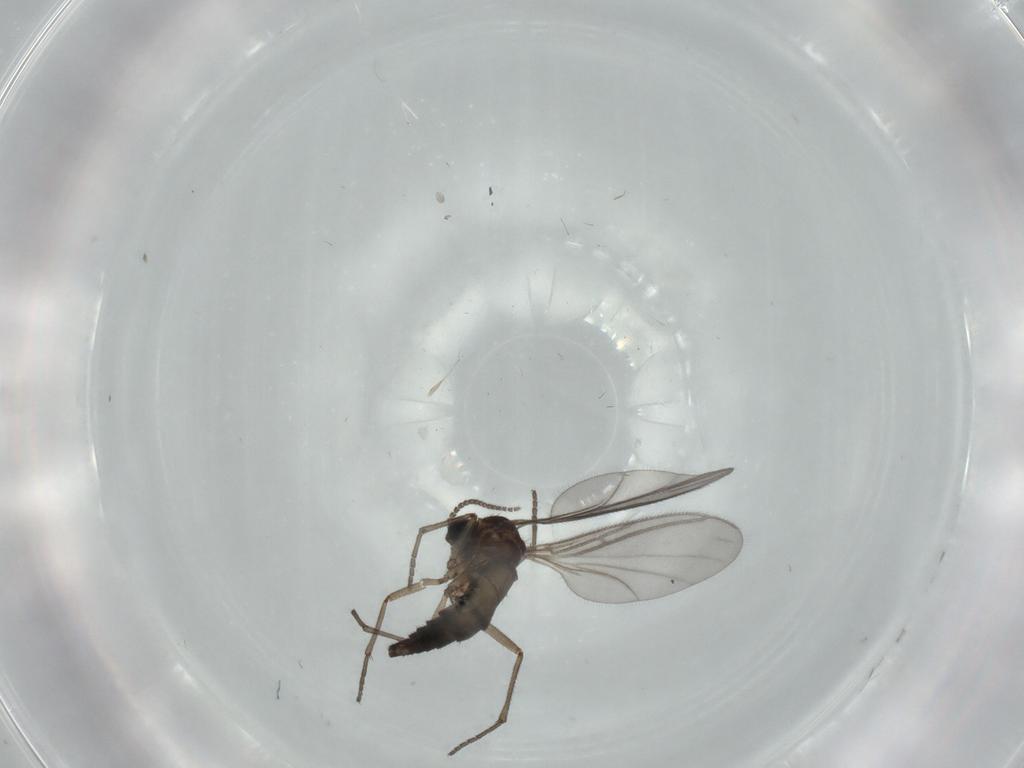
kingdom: Animalia
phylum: Arthropoda
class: Insecta
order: Diptera
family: Sciaridae
